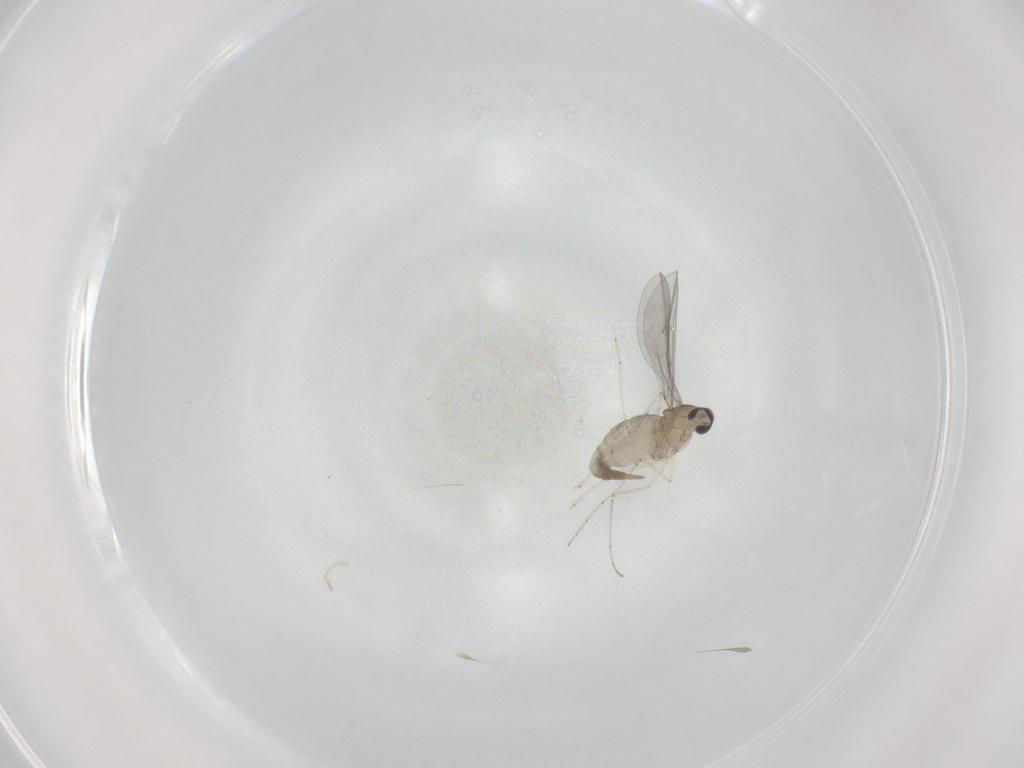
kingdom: Animalia
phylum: Arthropoda
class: Insecta
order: Diptera
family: Cecidomyiidae
